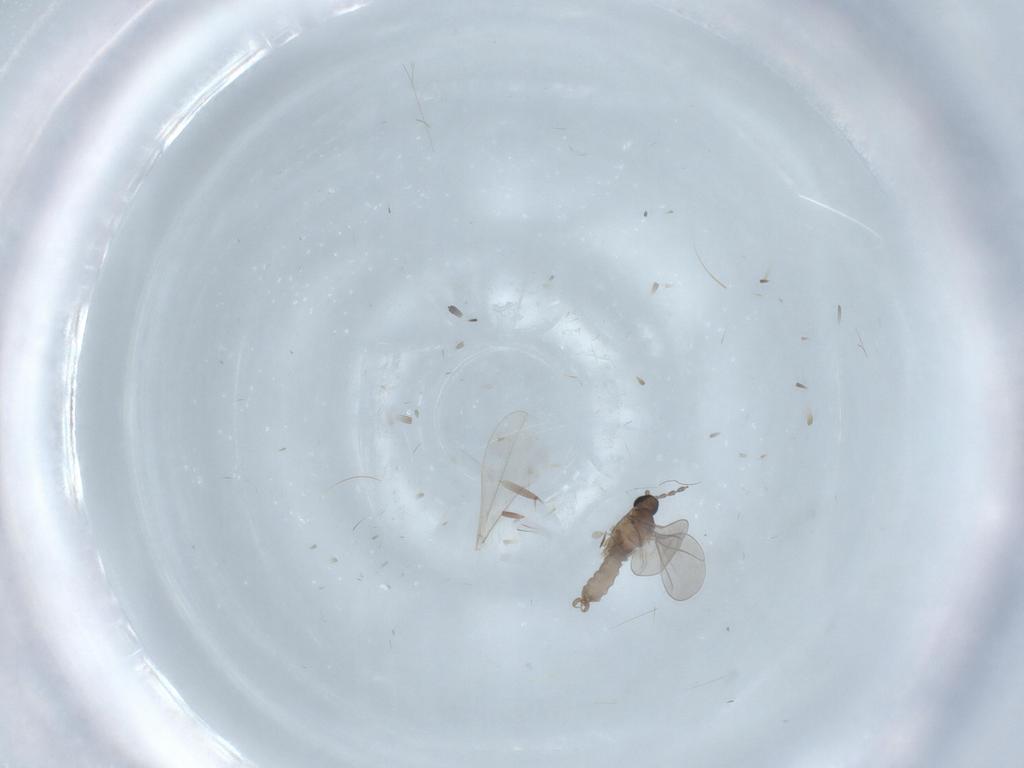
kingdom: Animalia
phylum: Arthropoda
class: Insecta
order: Diptera
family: Cecidomyiidae
